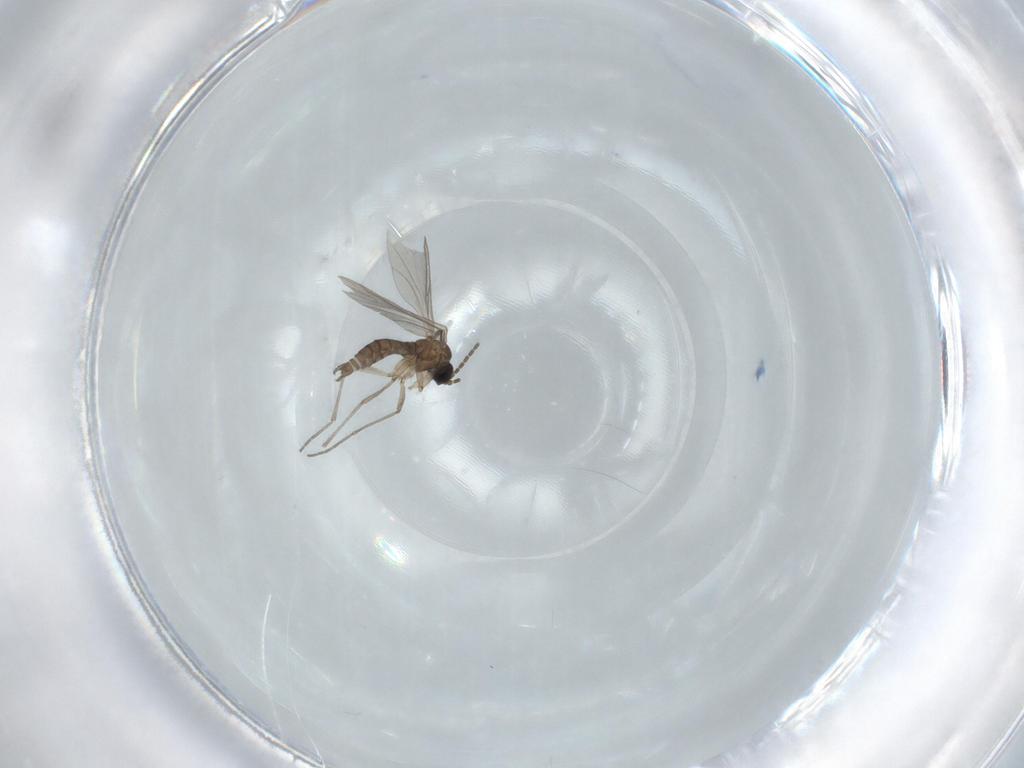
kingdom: Animalia
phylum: Arthropoda
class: Insecta
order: Diptera
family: Sciaridae
